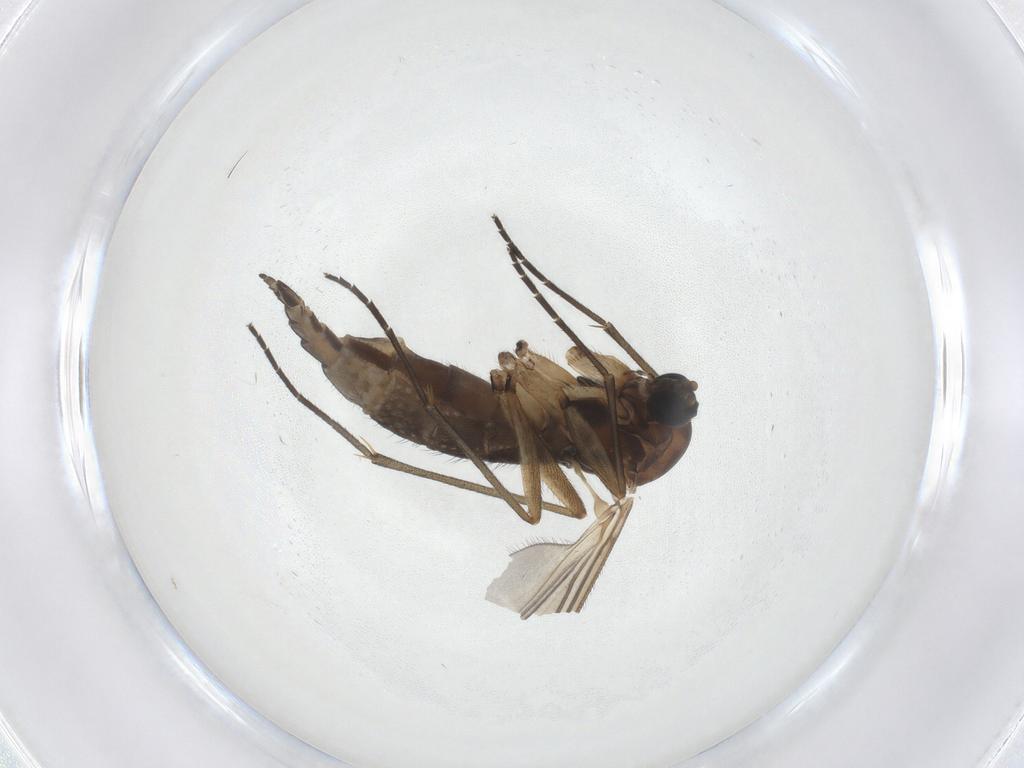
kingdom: Animalia
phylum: Arthropoda
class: Insecta
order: Diptera
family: Sciaridae
